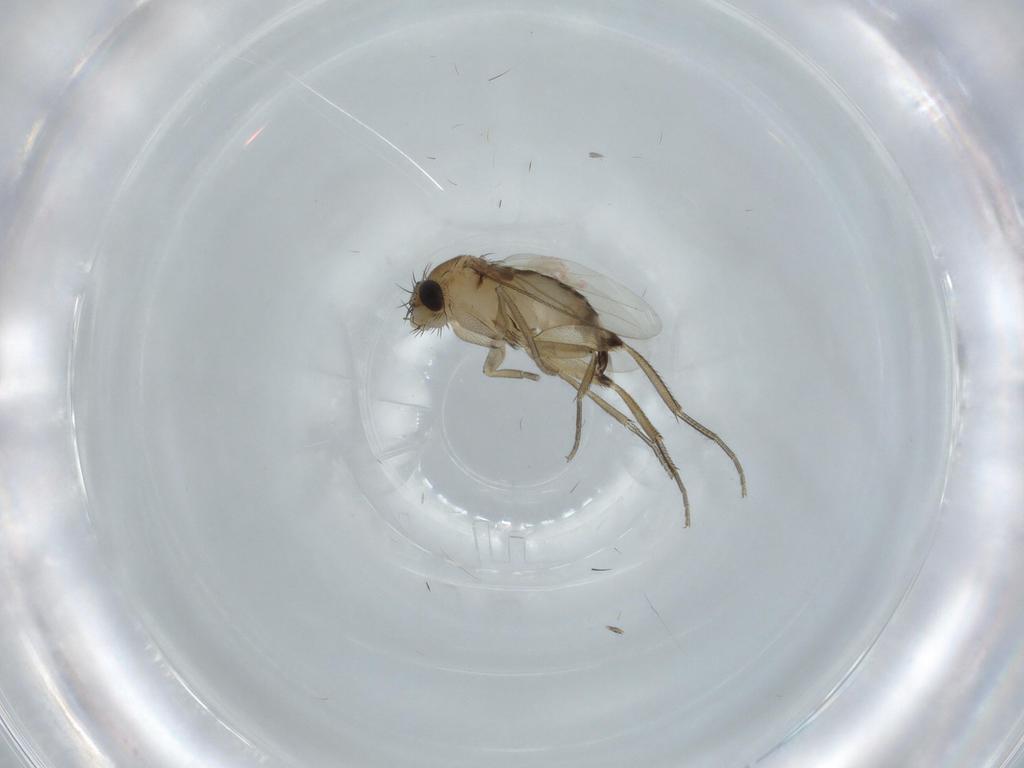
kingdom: Animalia
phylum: Arthropoda
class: Insecta
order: Diptera
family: Phoridae
